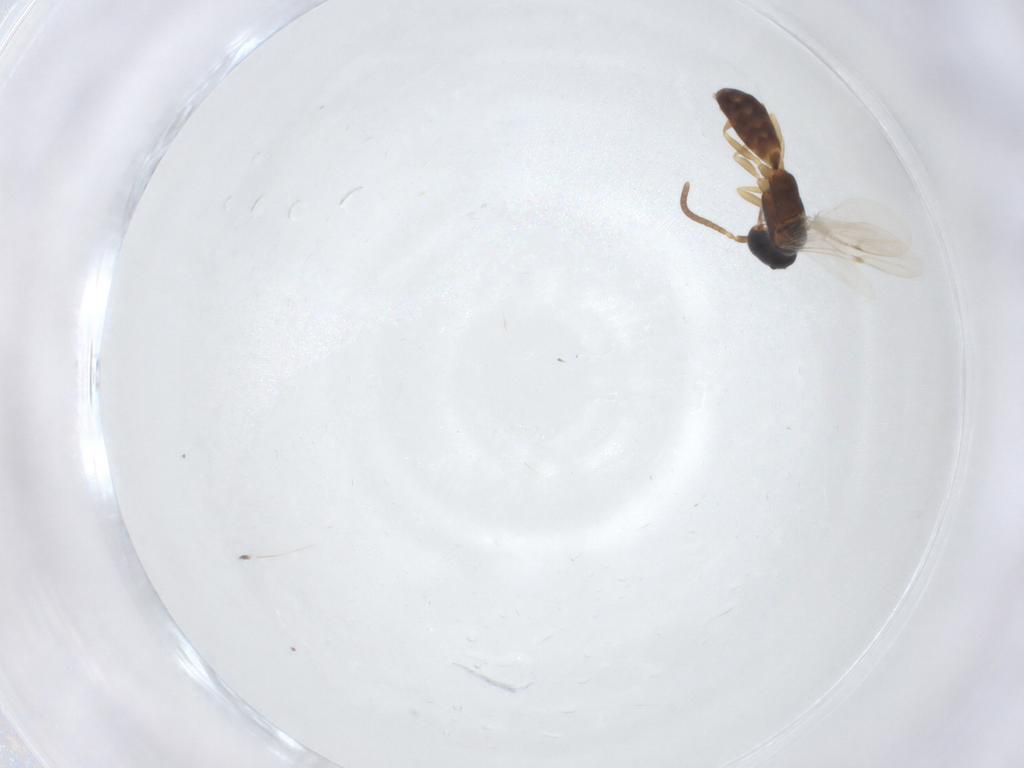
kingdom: Animalia
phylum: Arthropoda
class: Insecta
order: Hymenoptera
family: Bethylidae
